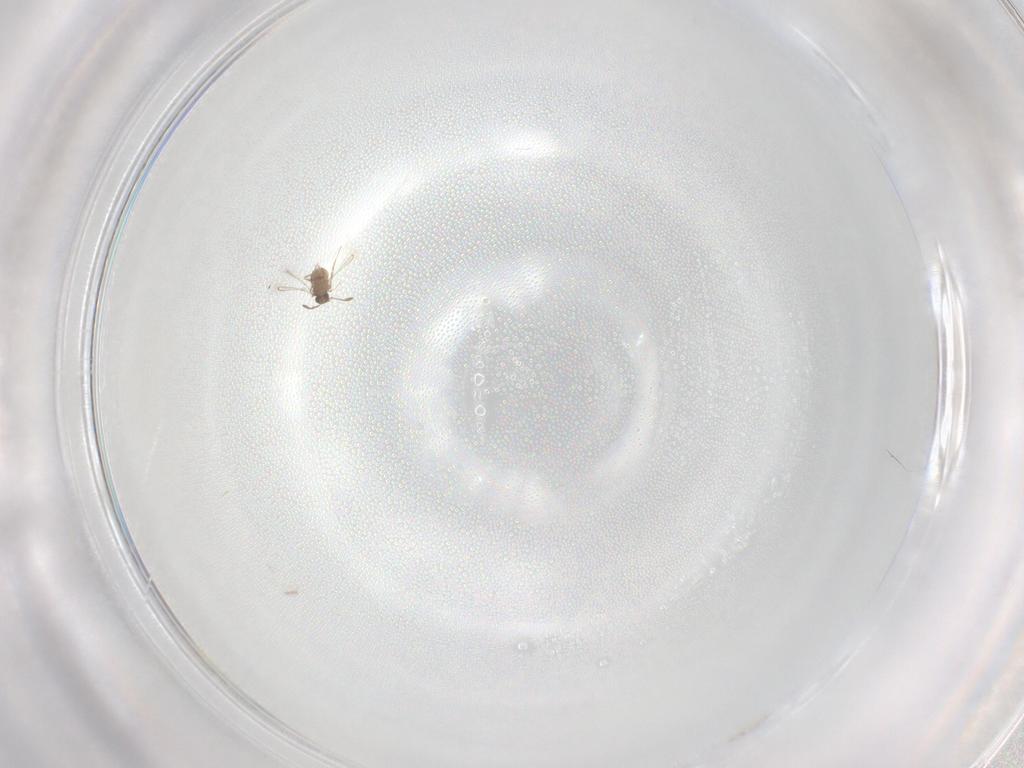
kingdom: Animalia
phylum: Arthropoda
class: Insecta
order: Hymenoptera
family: Mymaridae
